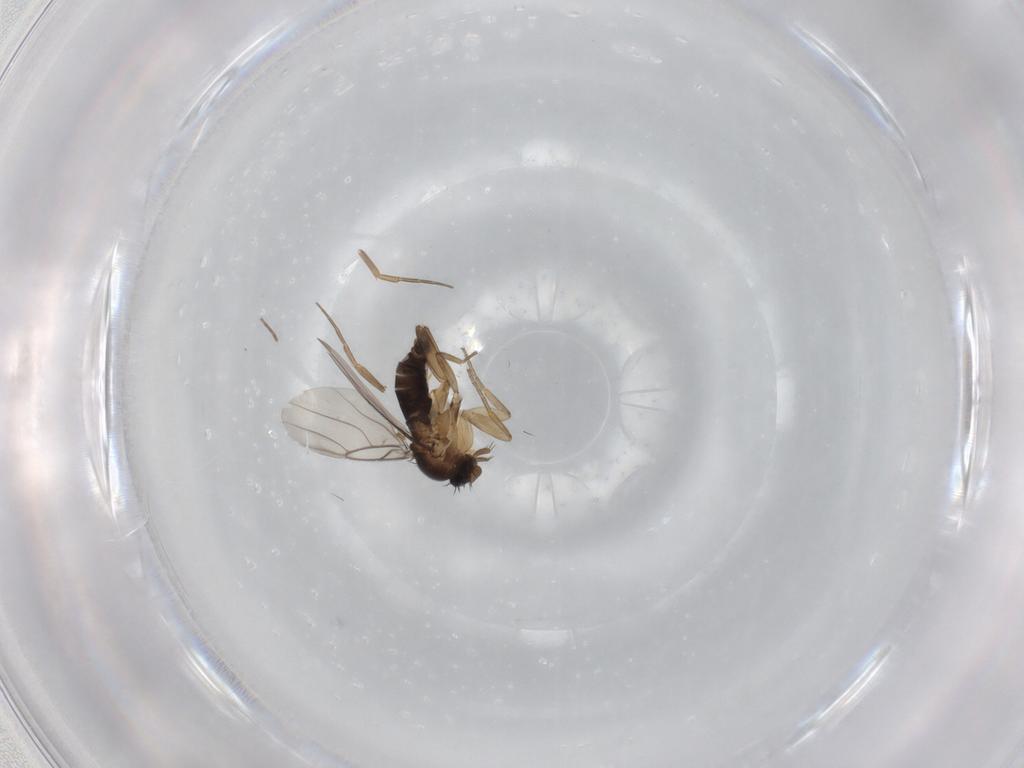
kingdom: Animalia
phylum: Arthropoda
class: Insecta
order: Diptera
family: Phoridae
